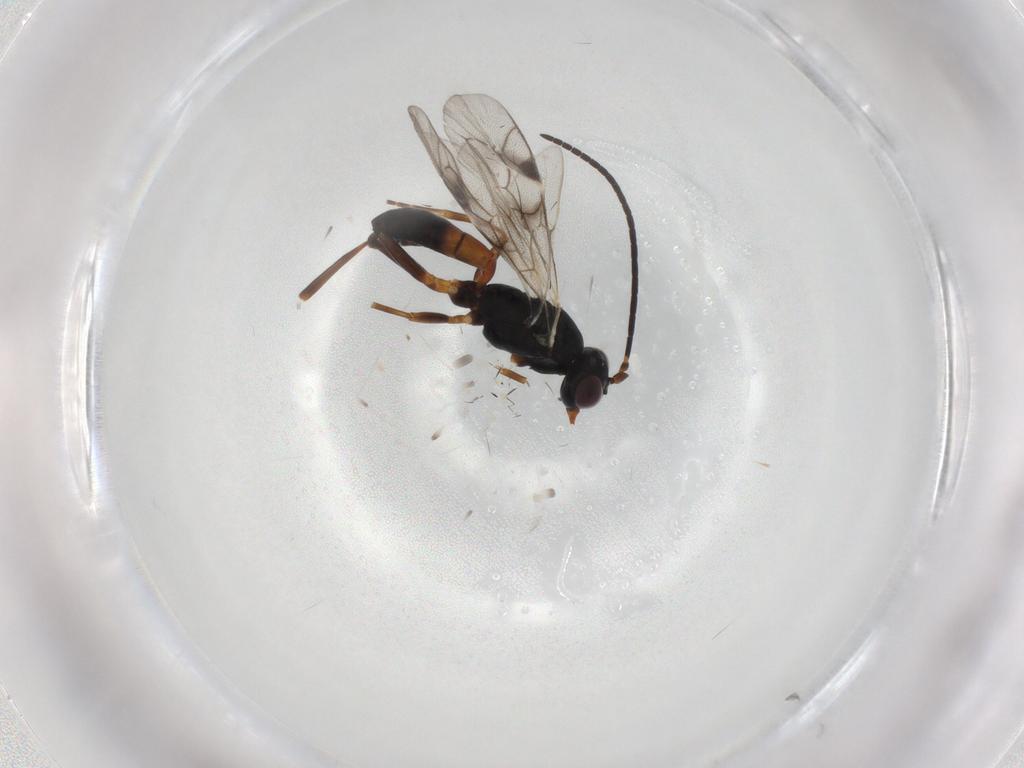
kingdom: Animalia
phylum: Arthropoda
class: Insecta
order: Hymenoptera
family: Ichneumonidae
